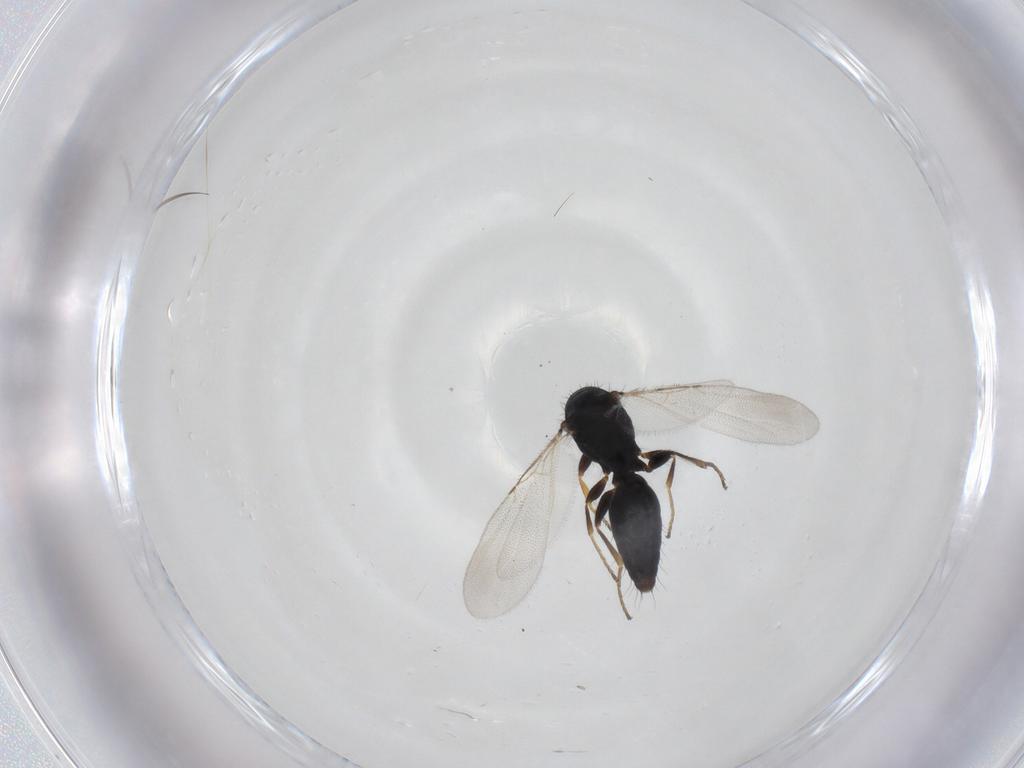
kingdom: Animalia
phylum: Arthropoda
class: Insecta
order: Hymenoptera
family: Bethylidae
